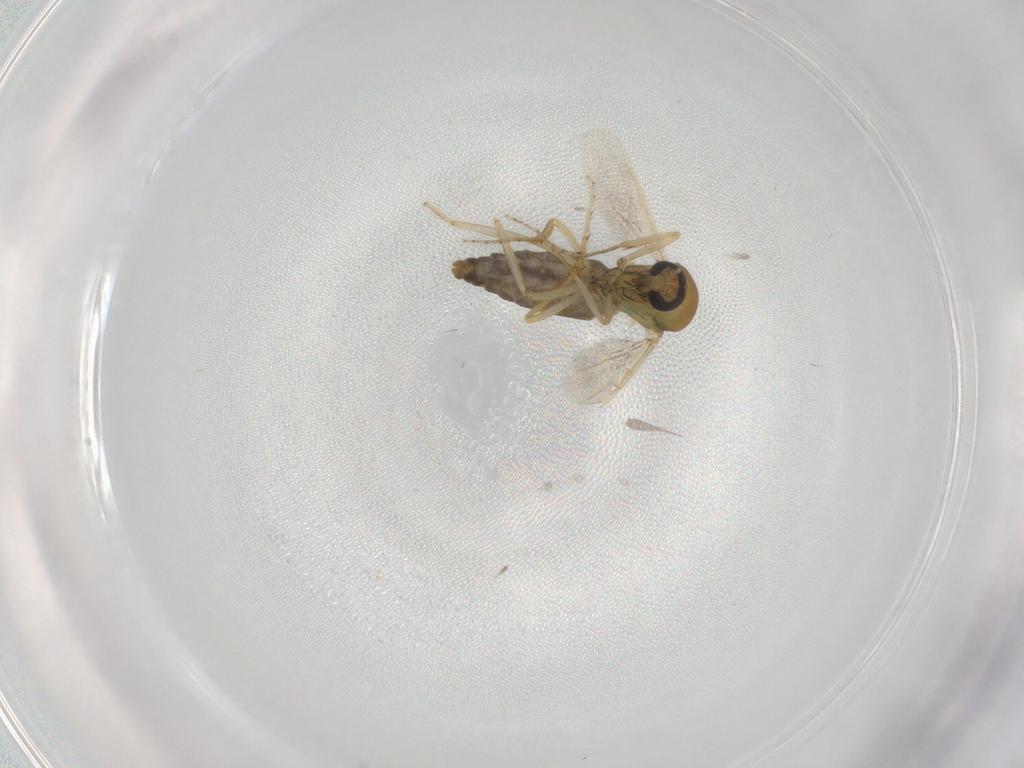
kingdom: Animalia
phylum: Arthropoda
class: Insecta
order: Diptera
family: Ceratopogonidae
